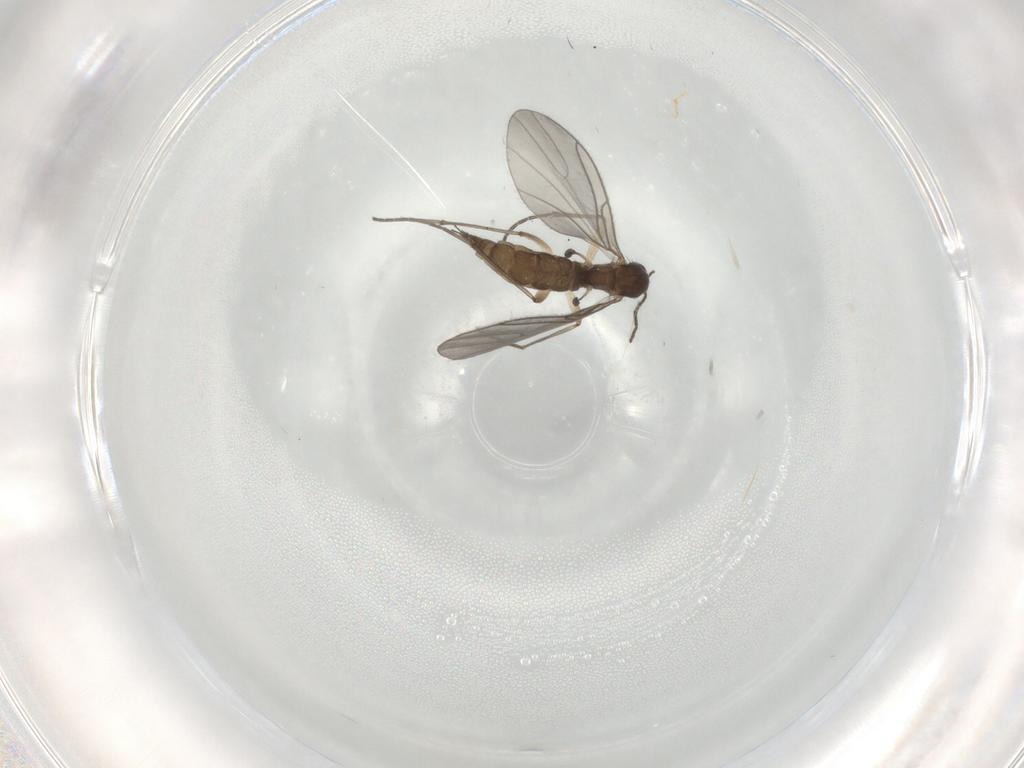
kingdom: Animalia
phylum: Arthropoda
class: Insecta
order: Diptera
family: Sciaridae
